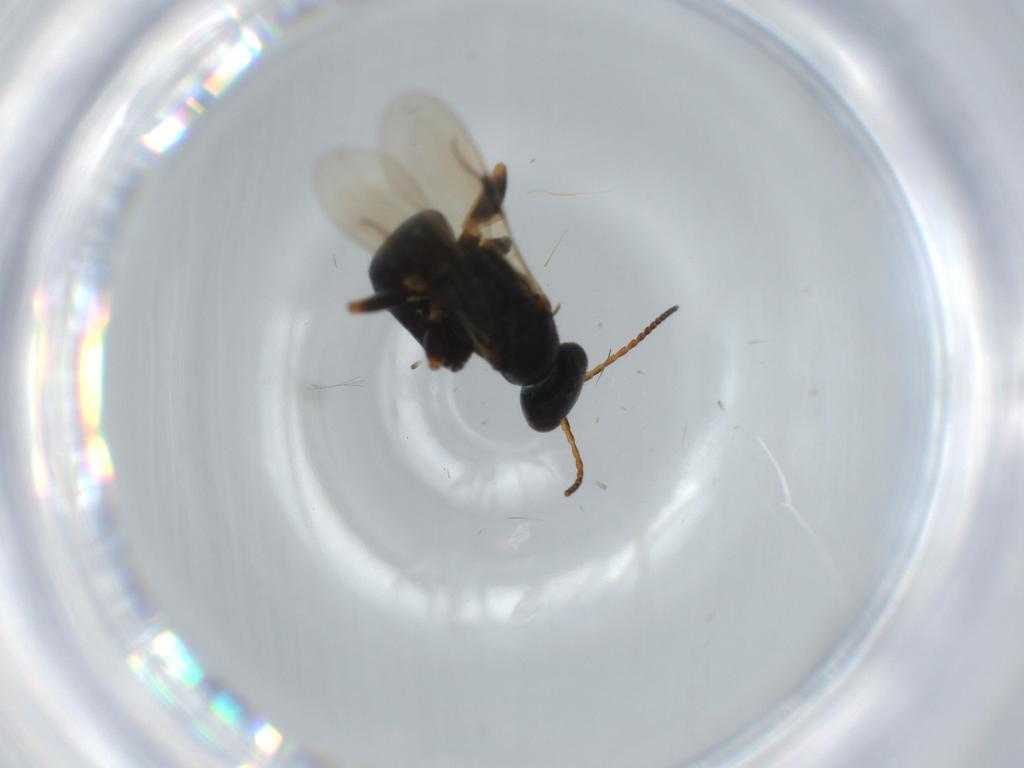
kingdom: Animalia
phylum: Arthropoda
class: Insecta
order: Hymenoptera
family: Bethylidae
